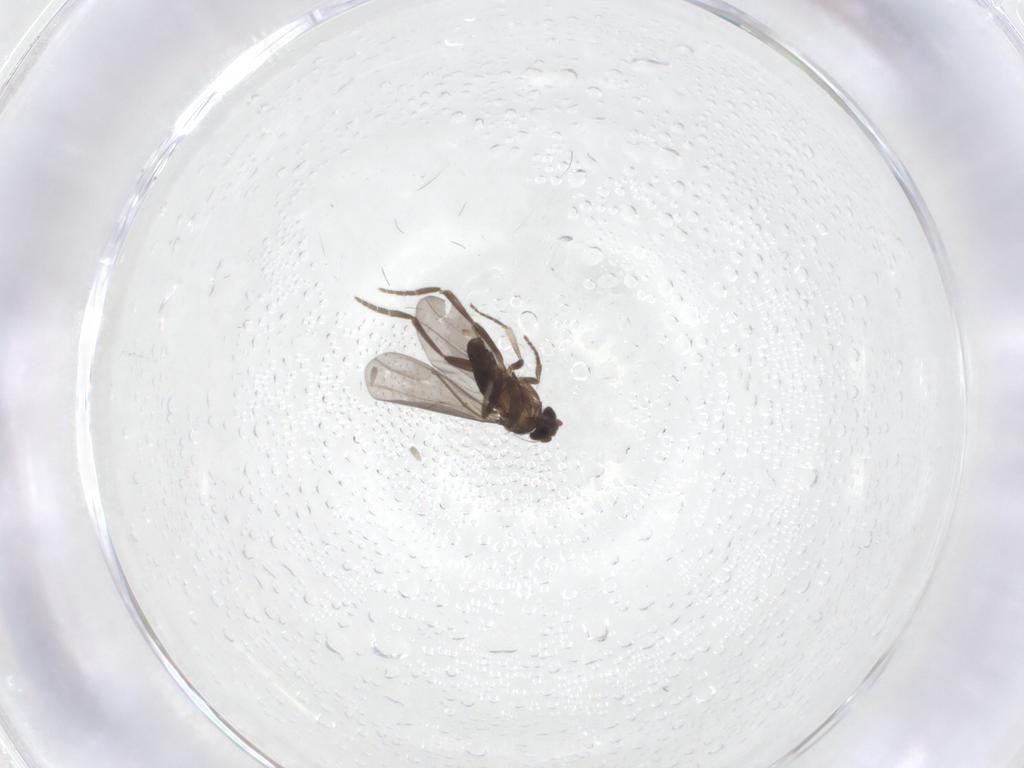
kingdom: Animalia
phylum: Arthropoda
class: Insecta
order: Diptera
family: Phoridae
